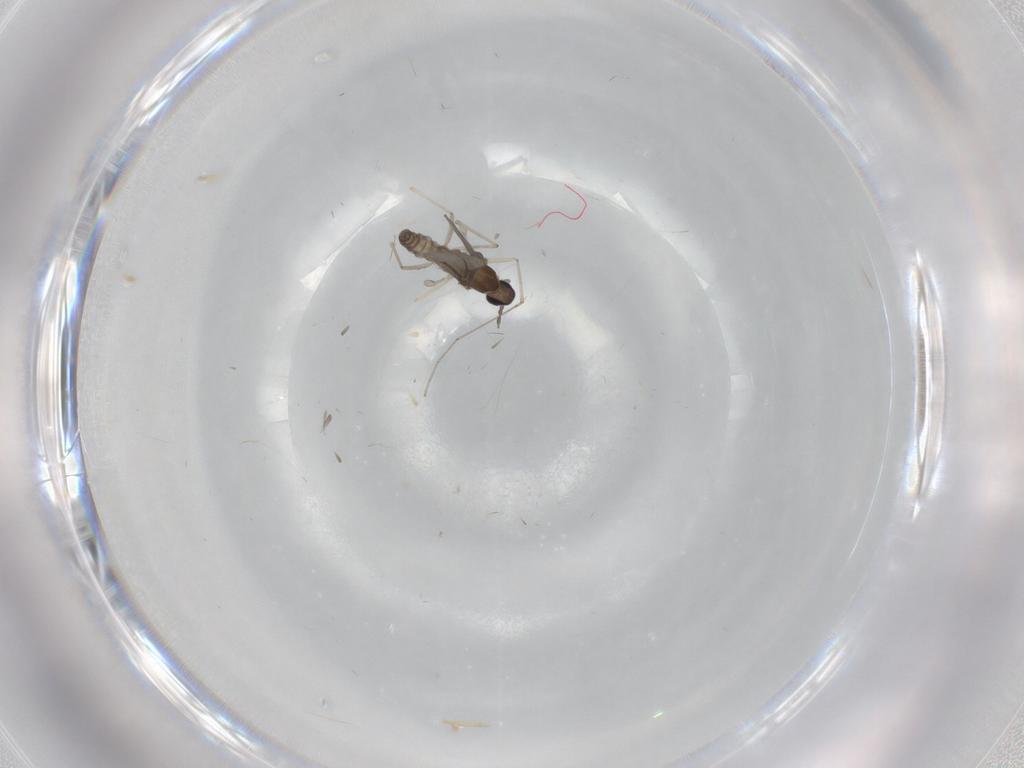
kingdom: Animalia
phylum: Arthropoda
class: Insecta
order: Diptera
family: Cecidomyiidae
